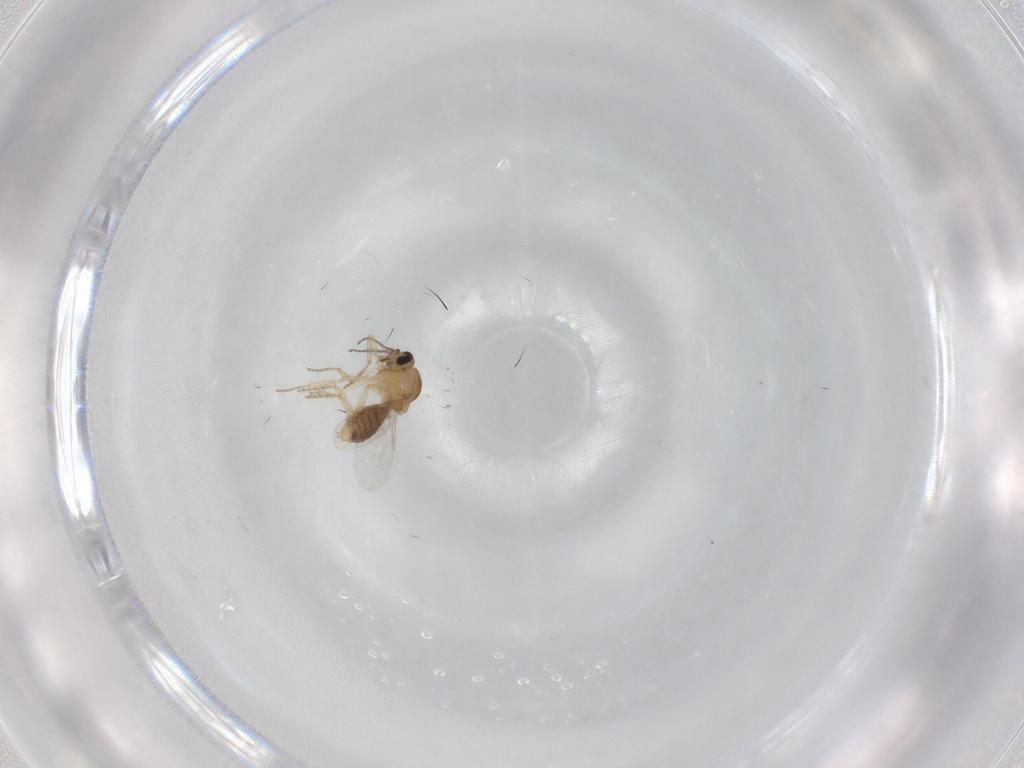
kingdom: Animalia
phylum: Arthropoda
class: Insecta
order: Diptera
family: Ceratopogonidae
